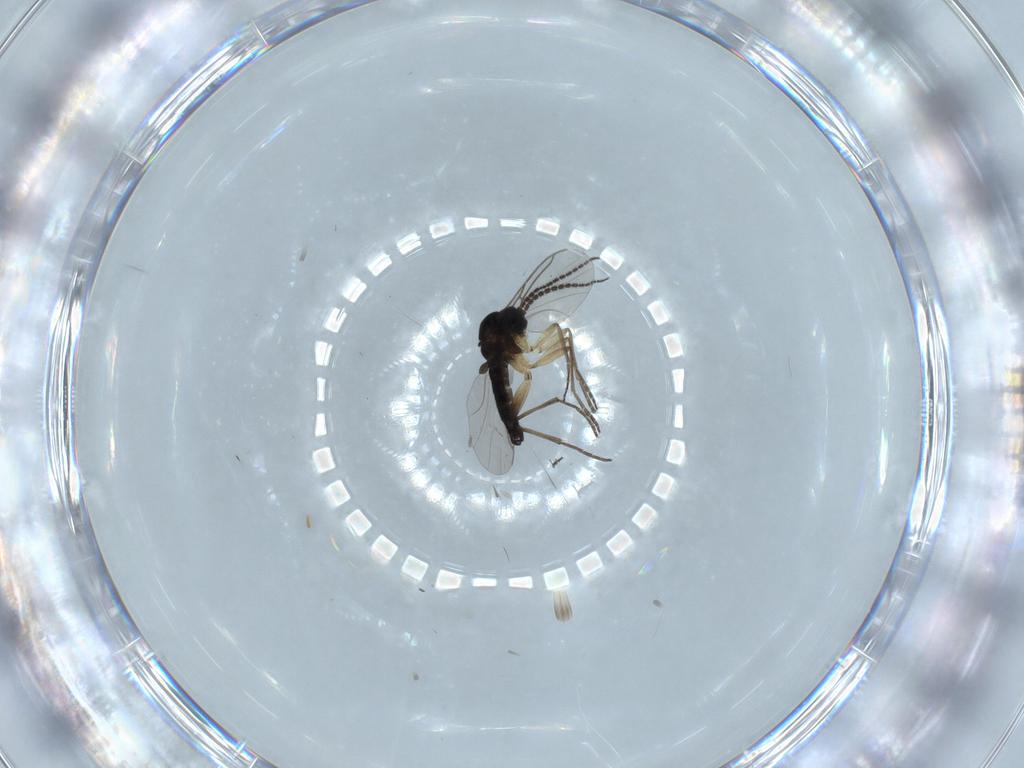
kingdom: Animalia
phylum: Arthropoda
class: Insecta
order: Diptera
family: Sciaridae
